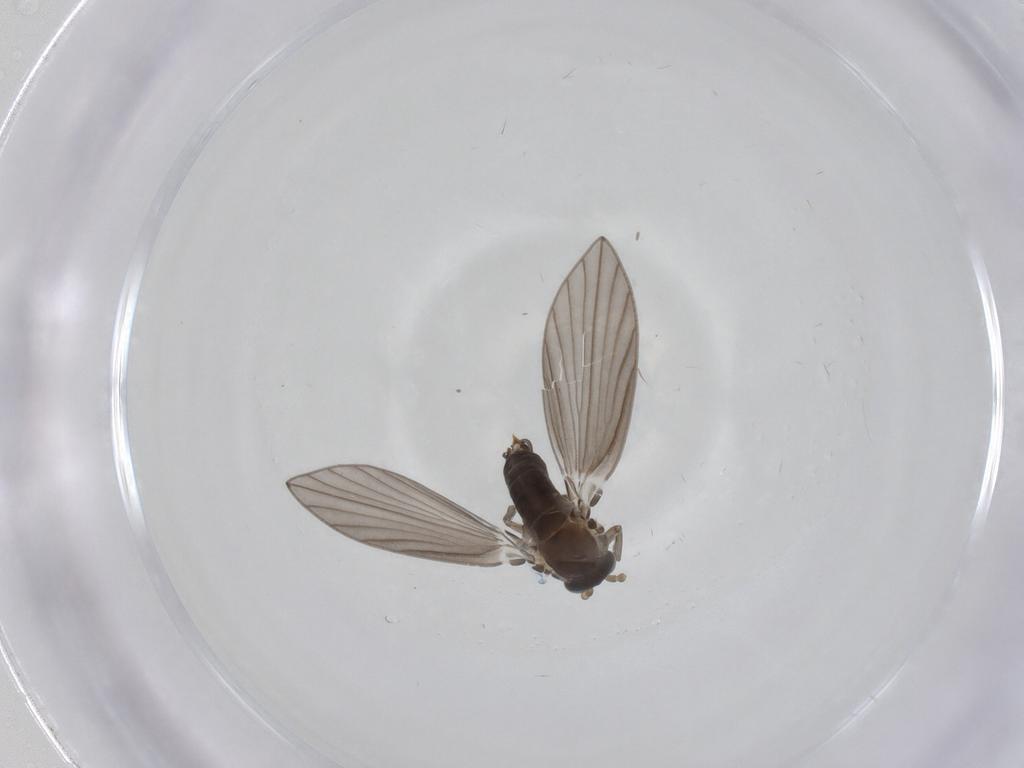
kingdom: Animalia
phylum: Arthropoda
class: Insecta
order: Diptera
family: Psychodidae
